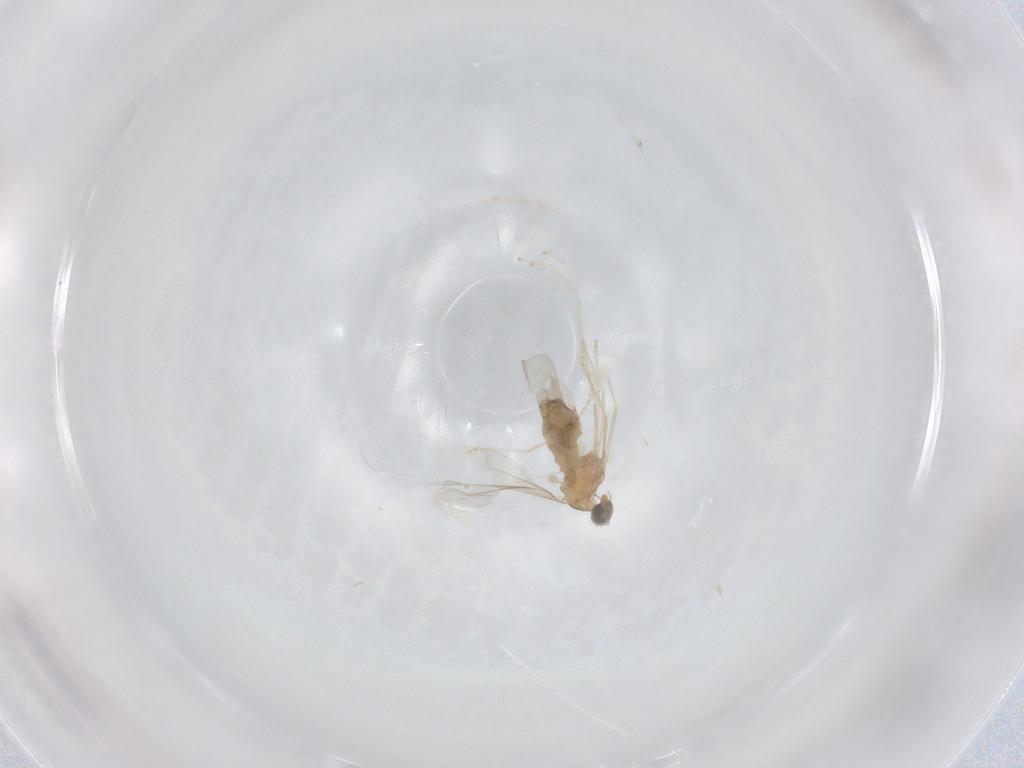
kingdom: Animalia
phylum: Arthropoda
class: Insecta
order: Diptera
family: Cecidomyiidae
